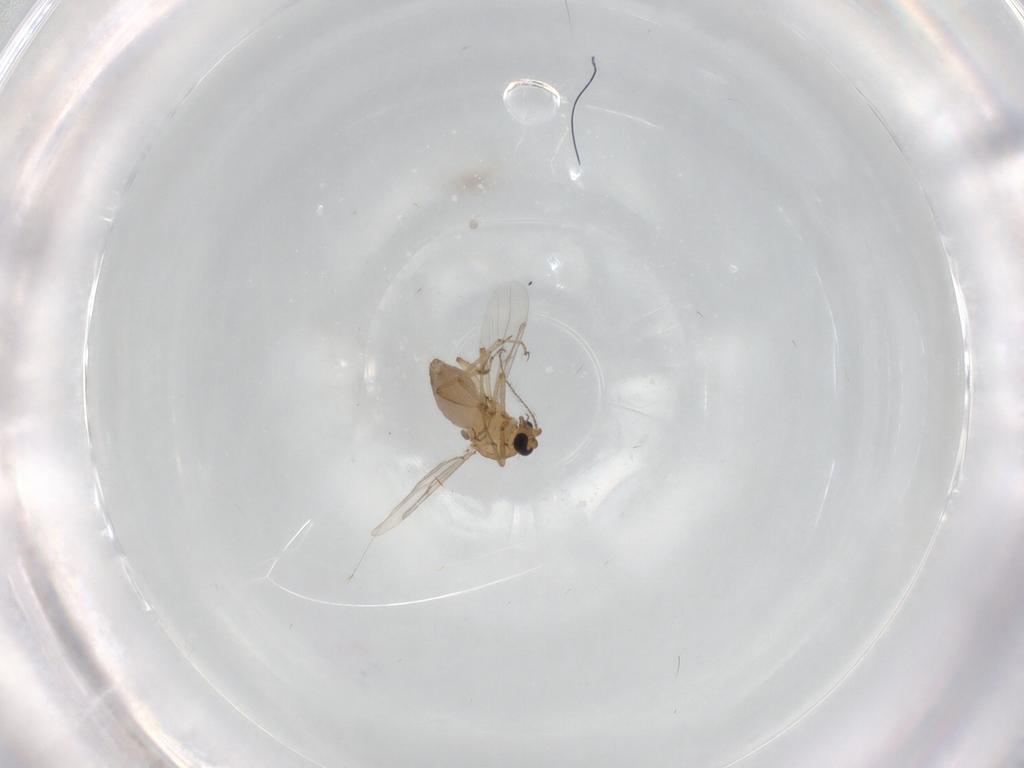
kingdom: Animalia
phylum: Arthropoda
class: Insecta
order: Diptera
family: Ceratopogonidae
